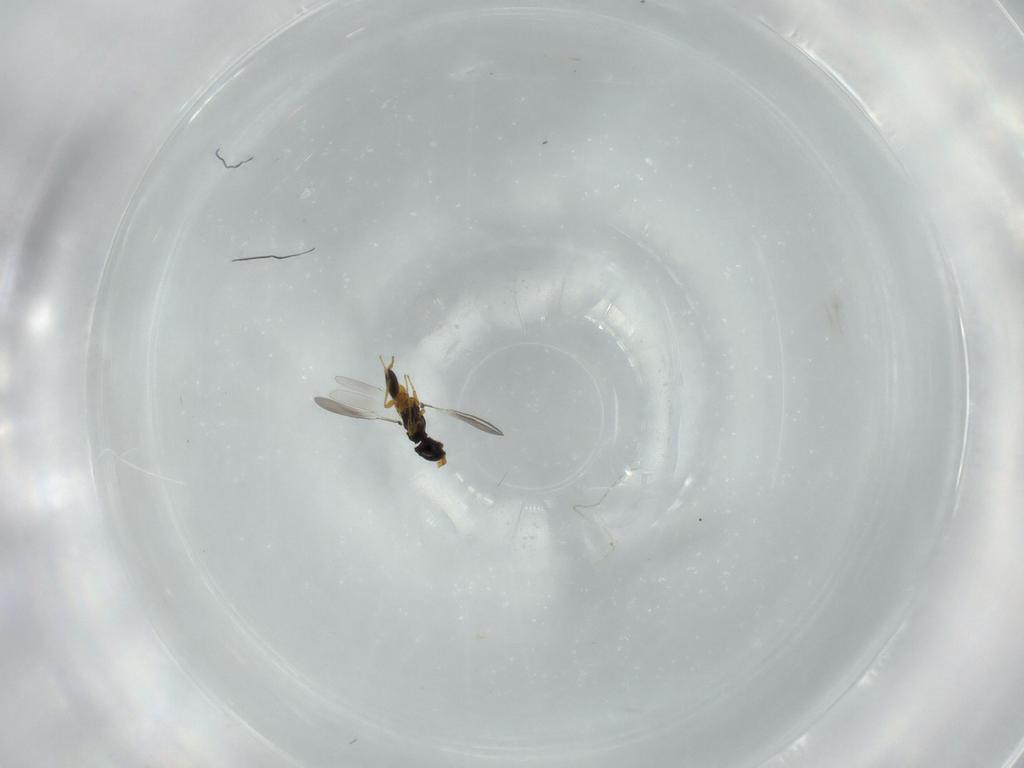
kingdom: Animalia
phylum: Arthropoda
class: Insecta
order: Hymenoptera
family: Platygastridae
